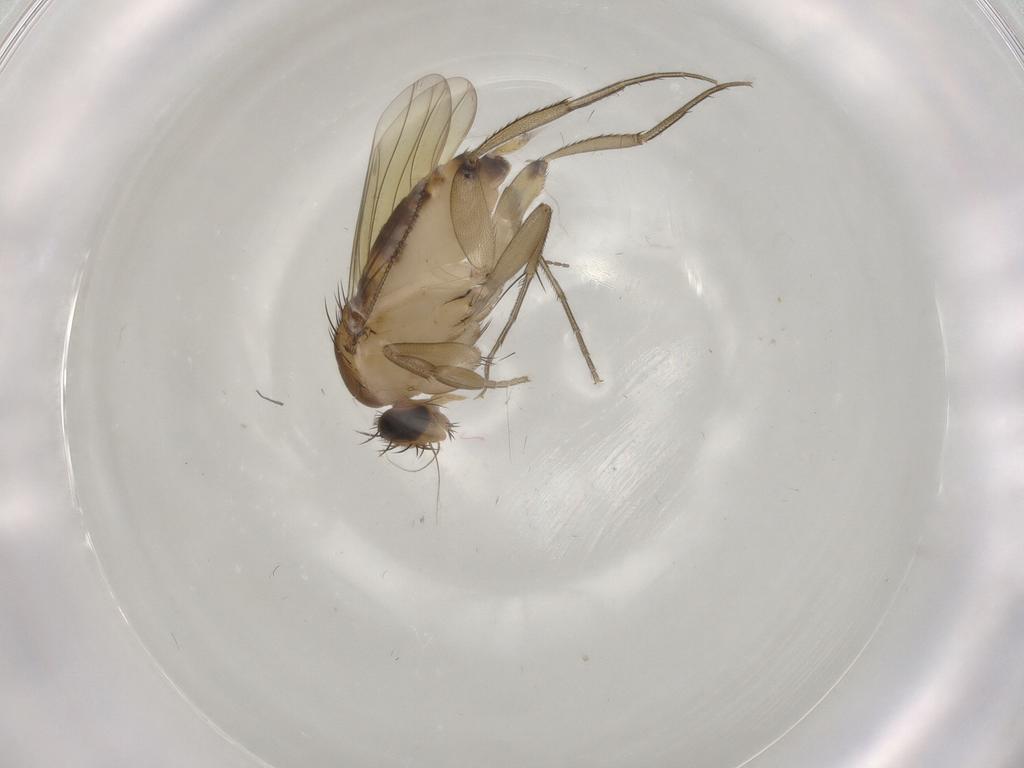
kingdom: Animalia
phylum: Arthropoda
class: Insecta
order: Diptera
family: Phoridae
